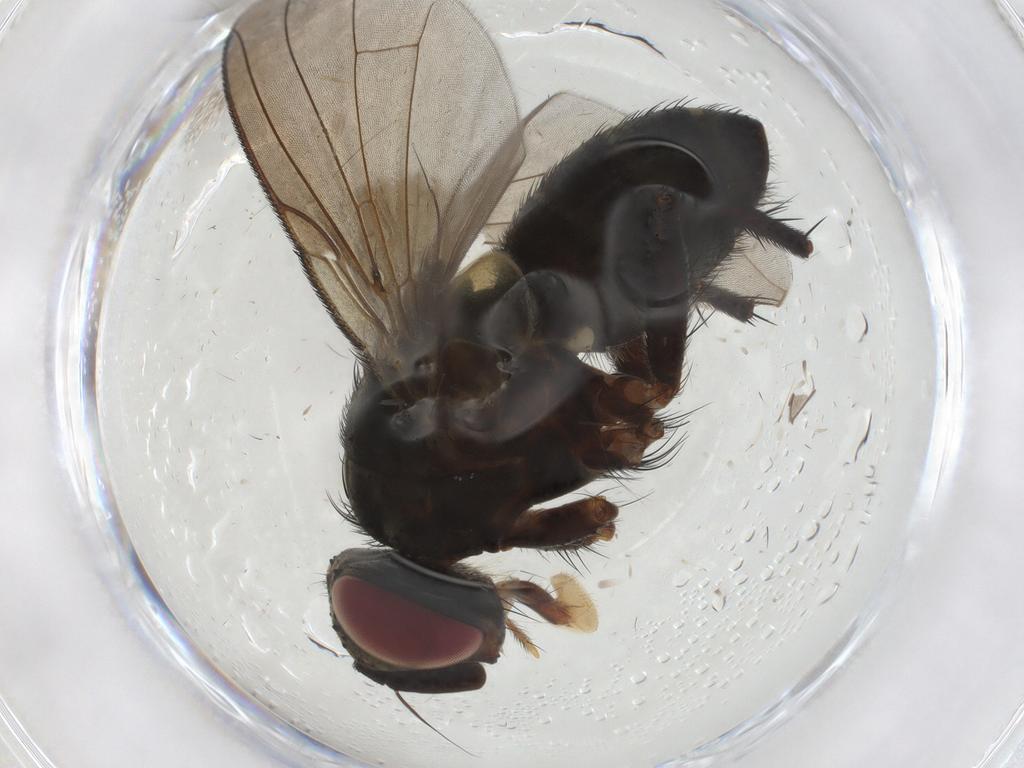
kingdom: Animalia
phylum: Arthropoda
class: Insecta
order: Diptera
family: Tachinidae
